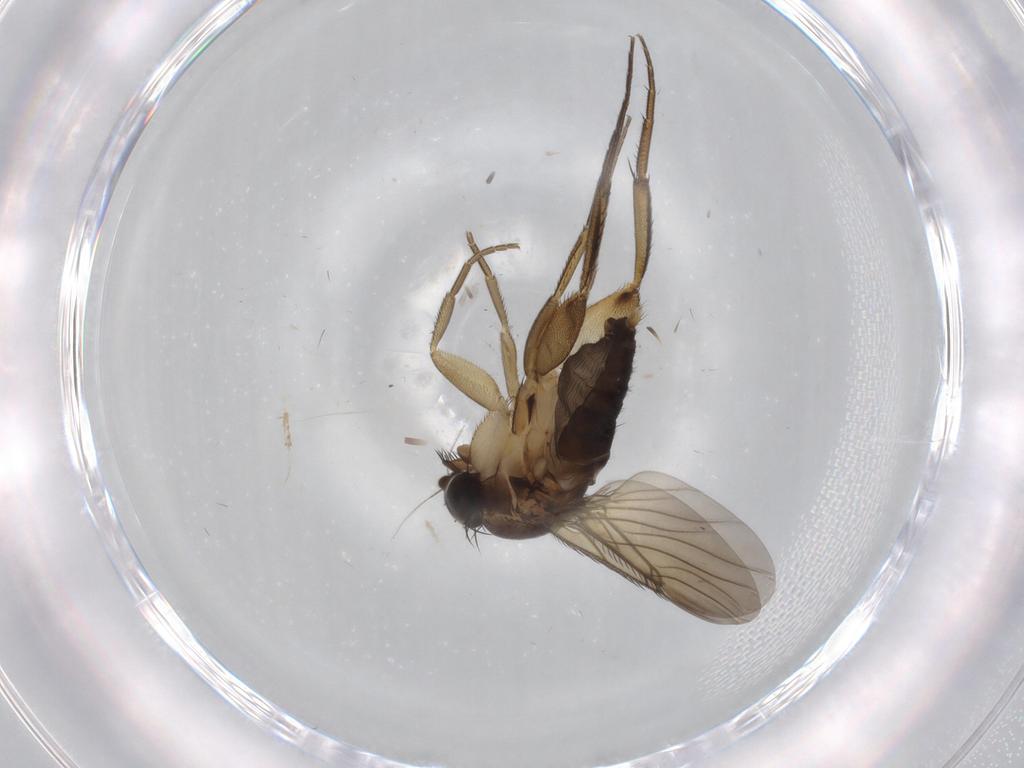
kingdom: Animalia
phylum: Arthropoda
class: Insecta
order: Diptera
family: Phoridae
